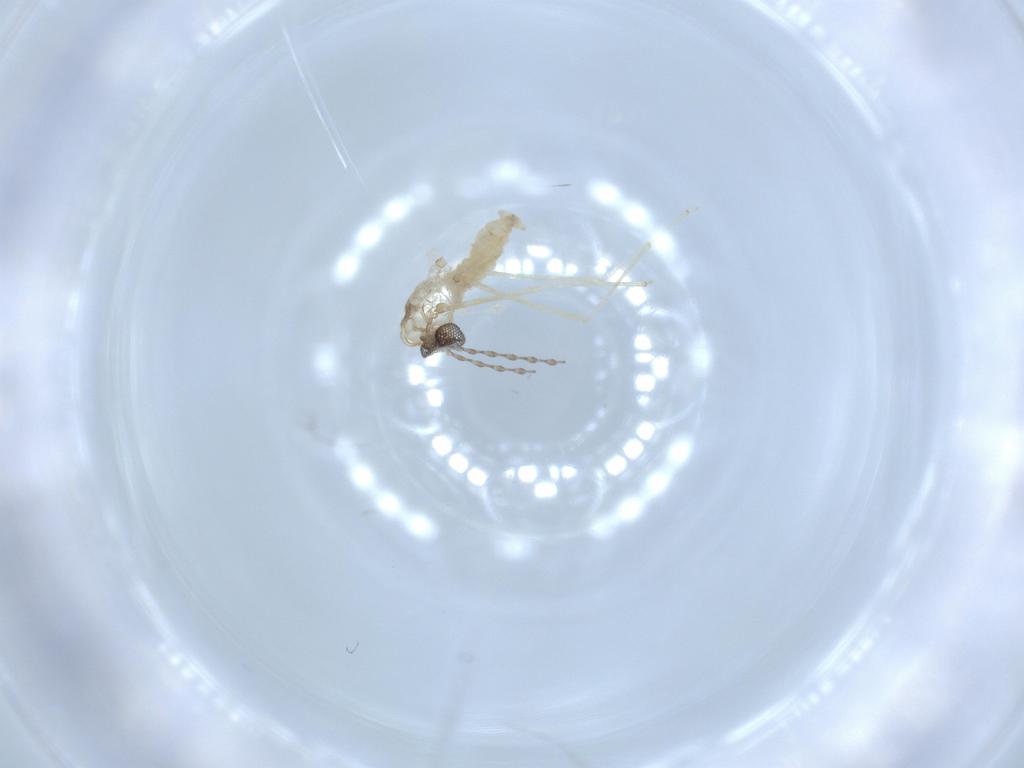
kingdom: Animalia
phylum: Arthropoda
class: Insecta
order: Diptera
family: Cecidomyiidae
